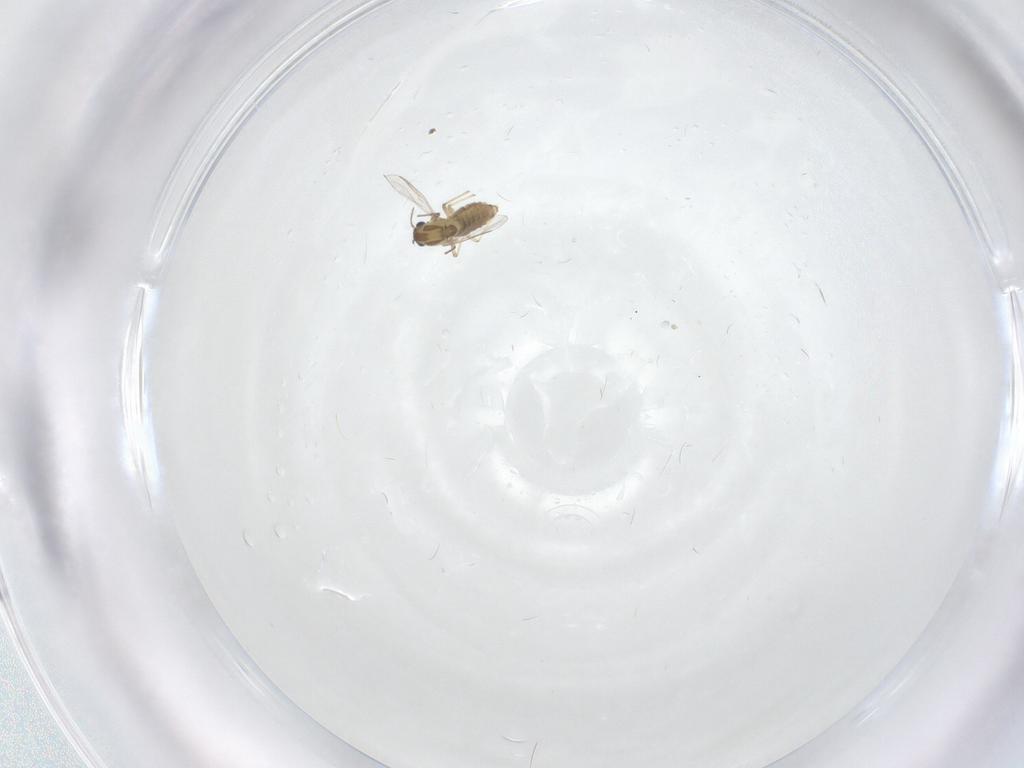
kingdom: Animalia
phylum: Arthropoda
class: Insecta
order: Diptera
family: Cecidomyiidae
